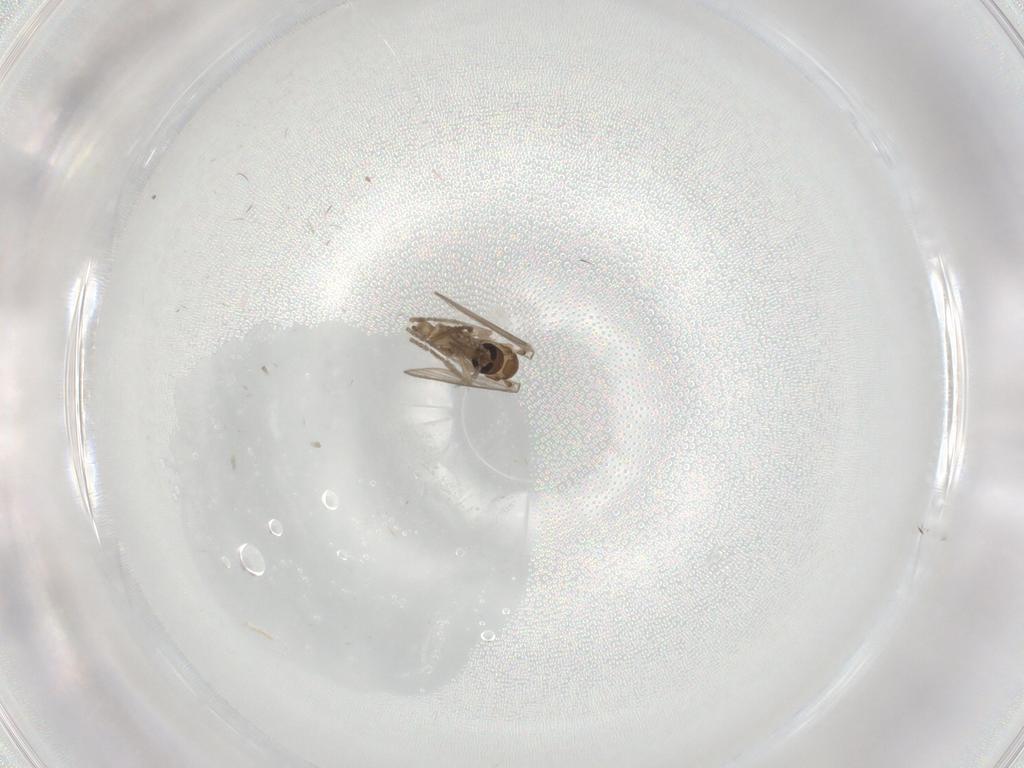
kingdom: Animalia
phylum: Arthropoda
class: Insecta
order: Diptera
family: Psychodidae
